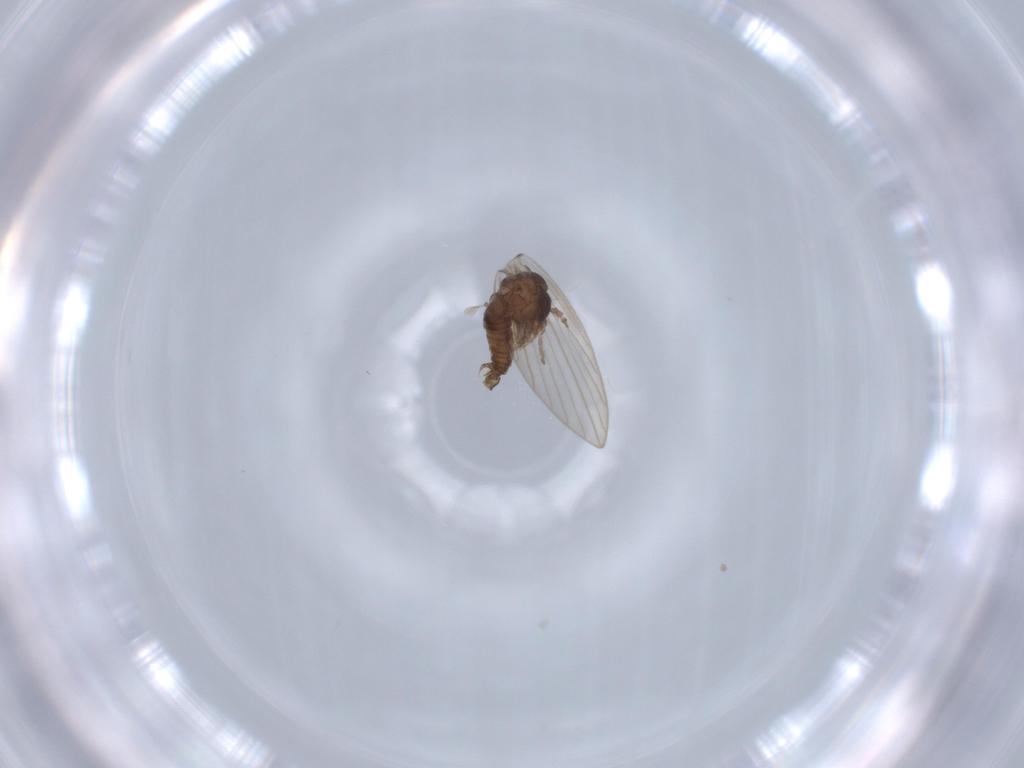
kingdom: Animalia
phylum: Arthropoda
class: Insecta
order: Diptera
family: Psychodidae
